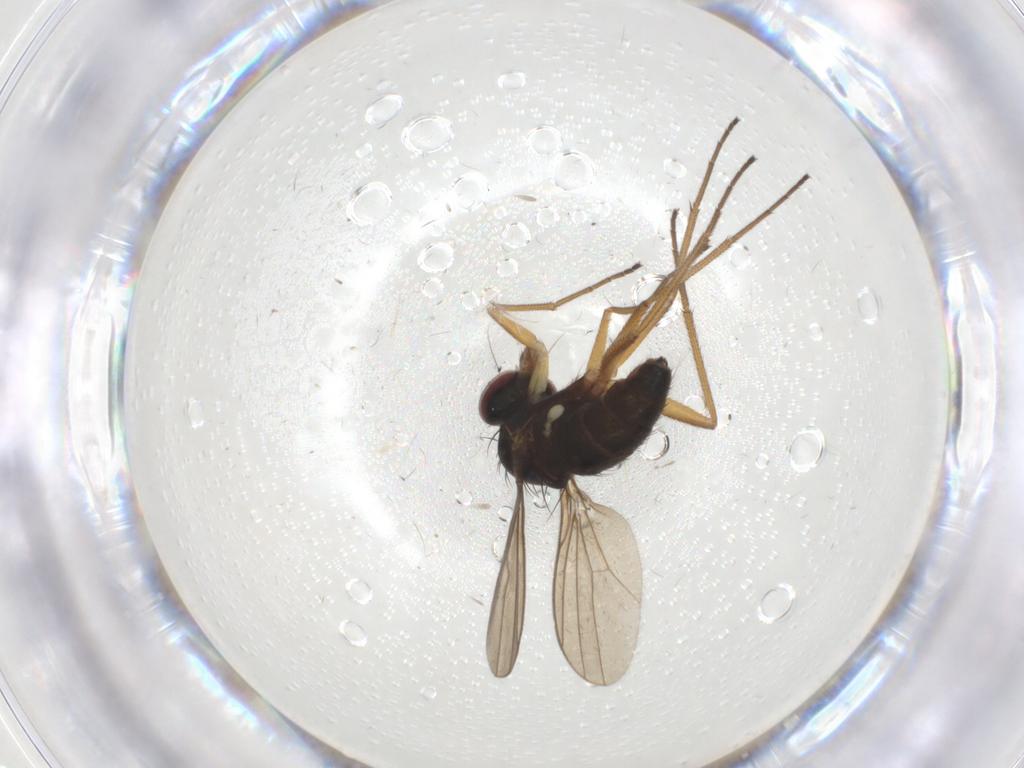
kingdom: Animalia
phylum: Arthropoda
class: Insecta
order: Diptera
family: Dolichopodidae
